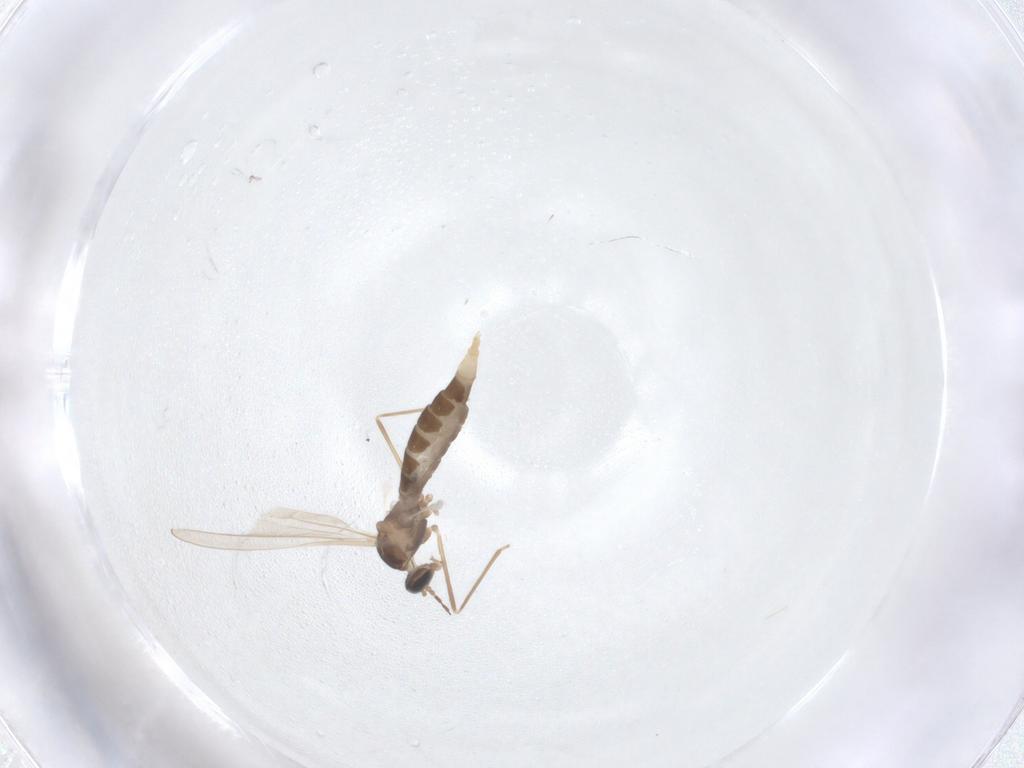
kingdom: Animalia
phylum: Arthropoda
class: Insecta
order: Diptera
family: Cecidomyiidae
